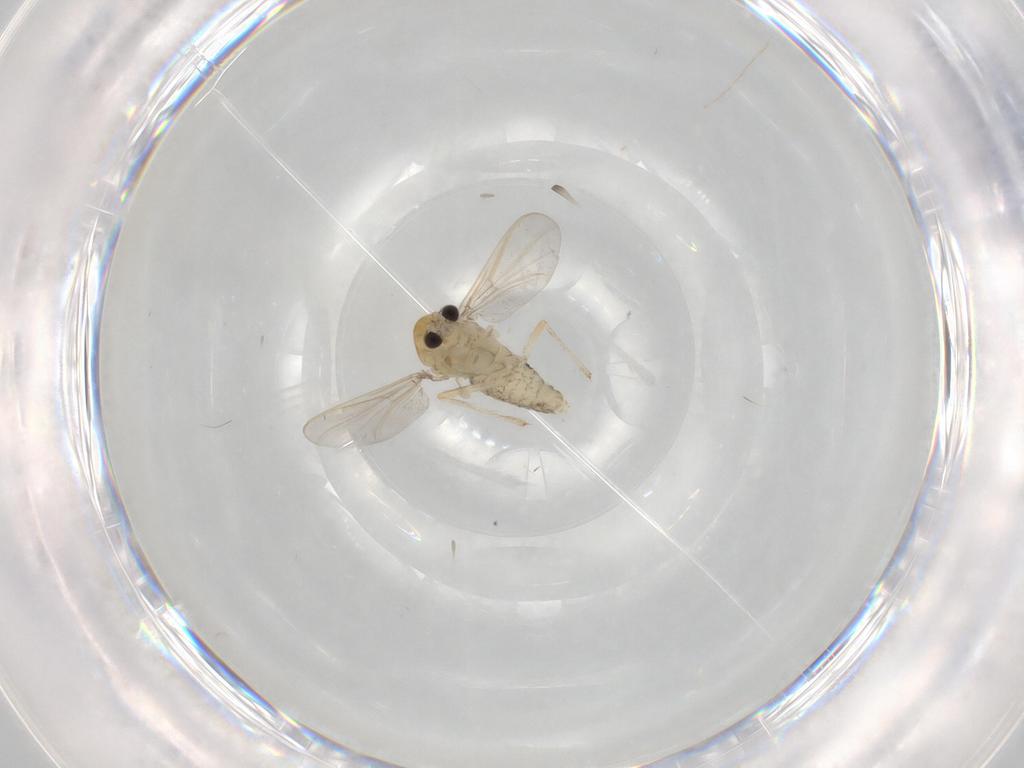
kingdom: Animalia
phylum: Arthropoda
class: Insecta
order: Diptera
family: Chironomidae
